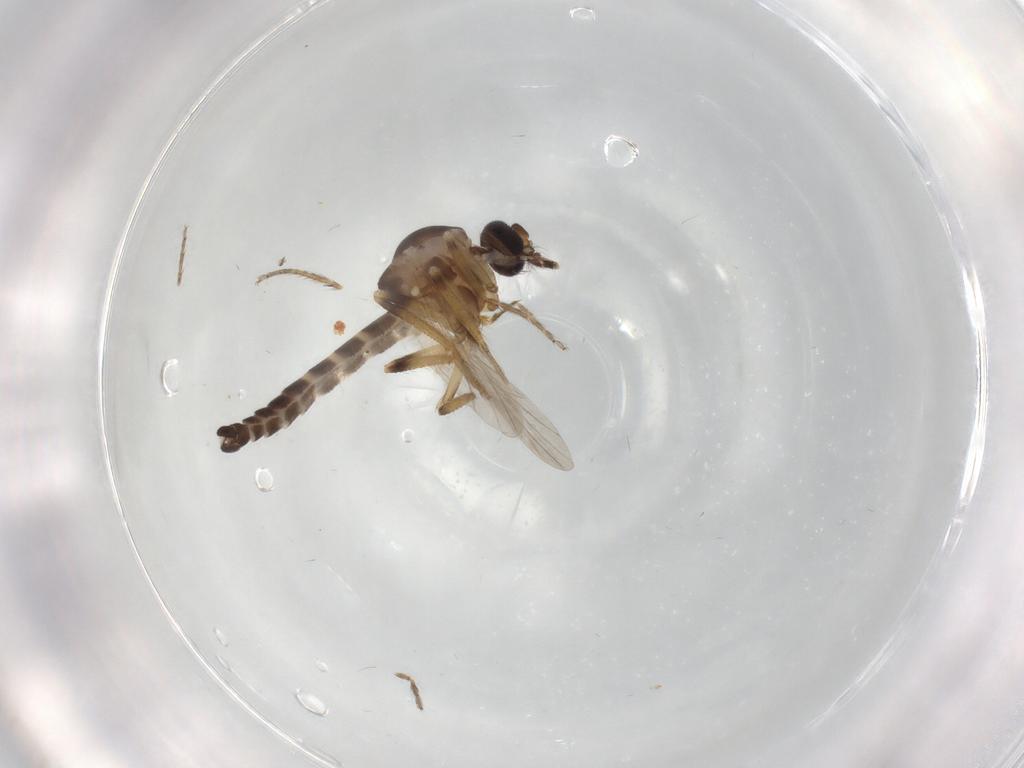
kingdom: Animalia
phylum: Arthropoda
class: Insecta
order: Diptera
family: Ceratopogonidae
